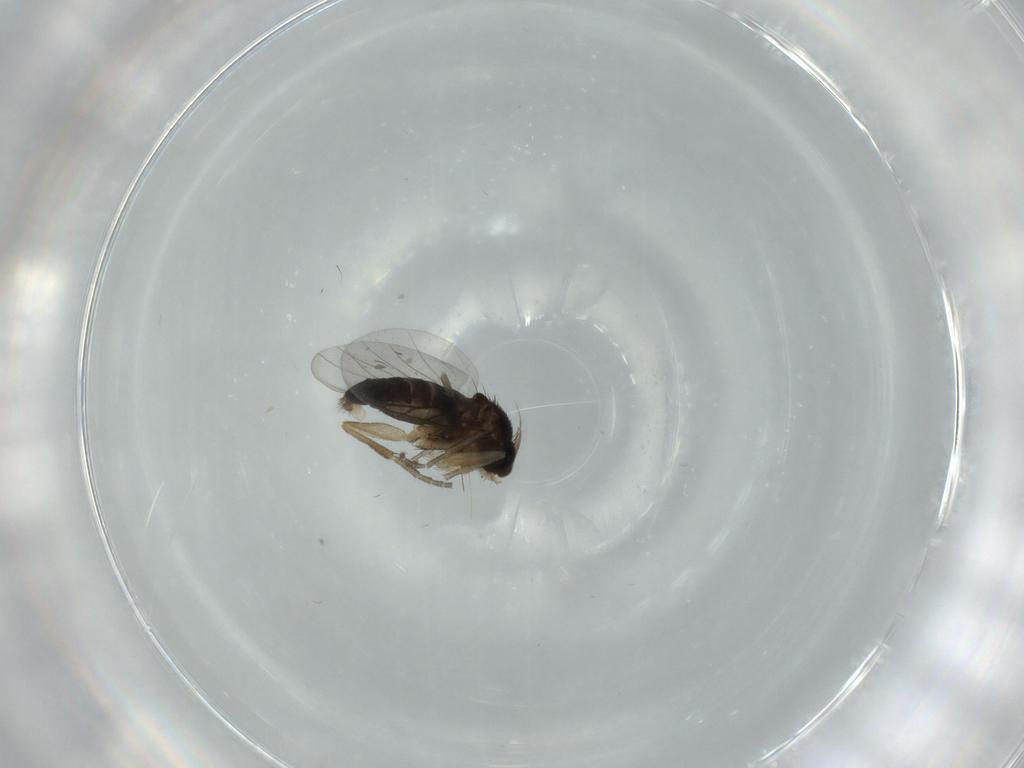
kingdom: Animalia
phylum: Arthropoda
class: Insecta
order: Diptera
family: Phoridae
